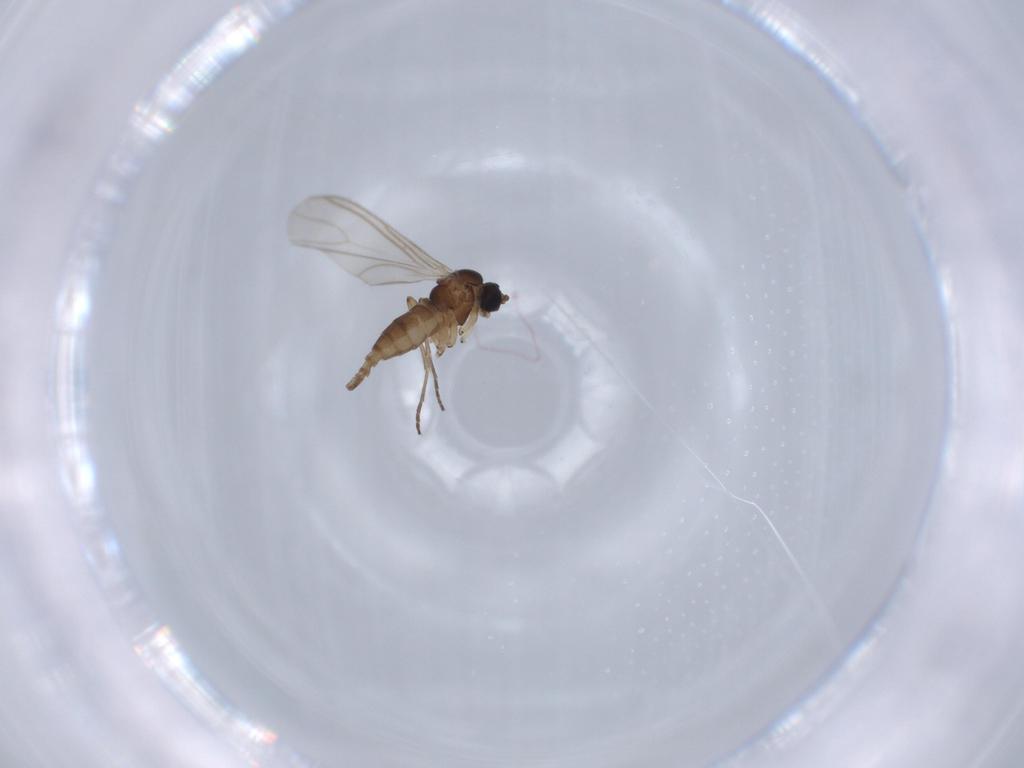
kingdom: Animalia
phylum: Arthropoda
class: Insecta
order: Diptera
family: Sciaridae
